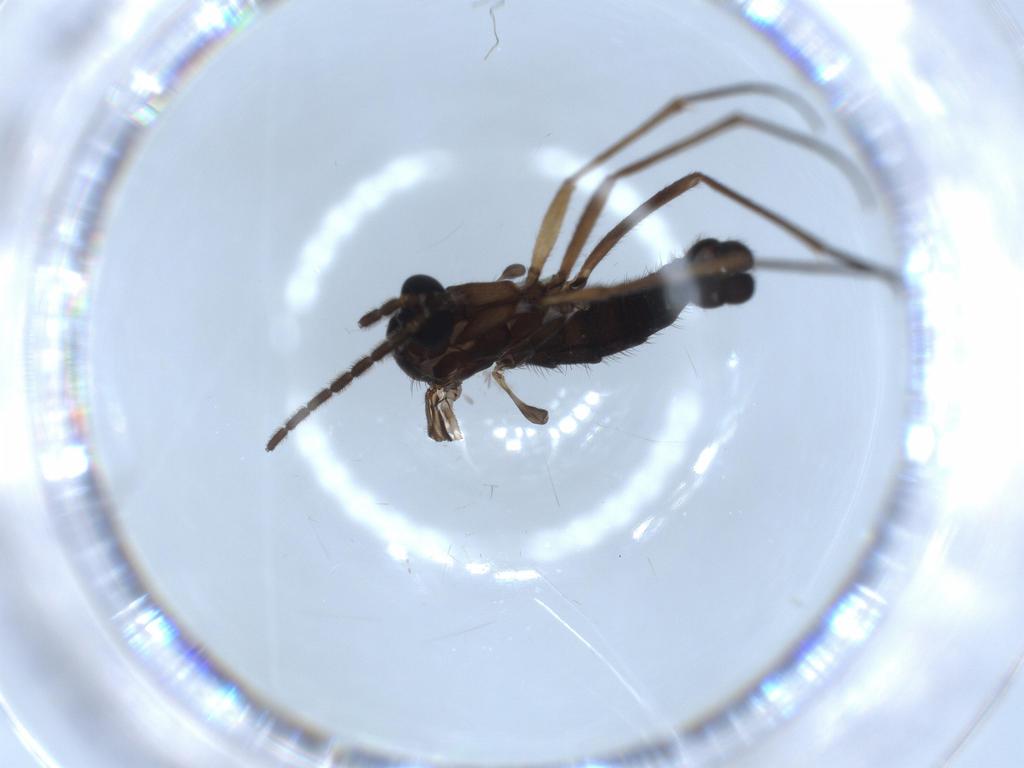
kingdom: Animalia
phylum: Arthropoda
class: Insecta
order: Diptera
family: Sciaridae
